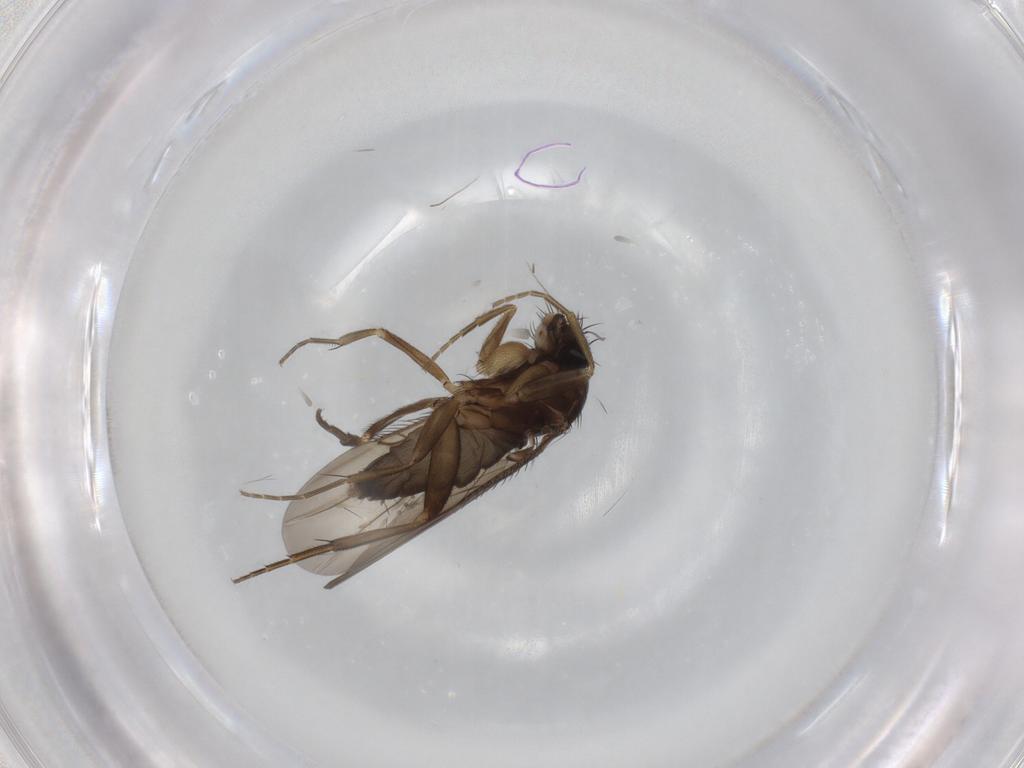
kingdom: Animalia
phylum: Arthropoda
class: Insecta
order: Diptera
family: Phoridae
